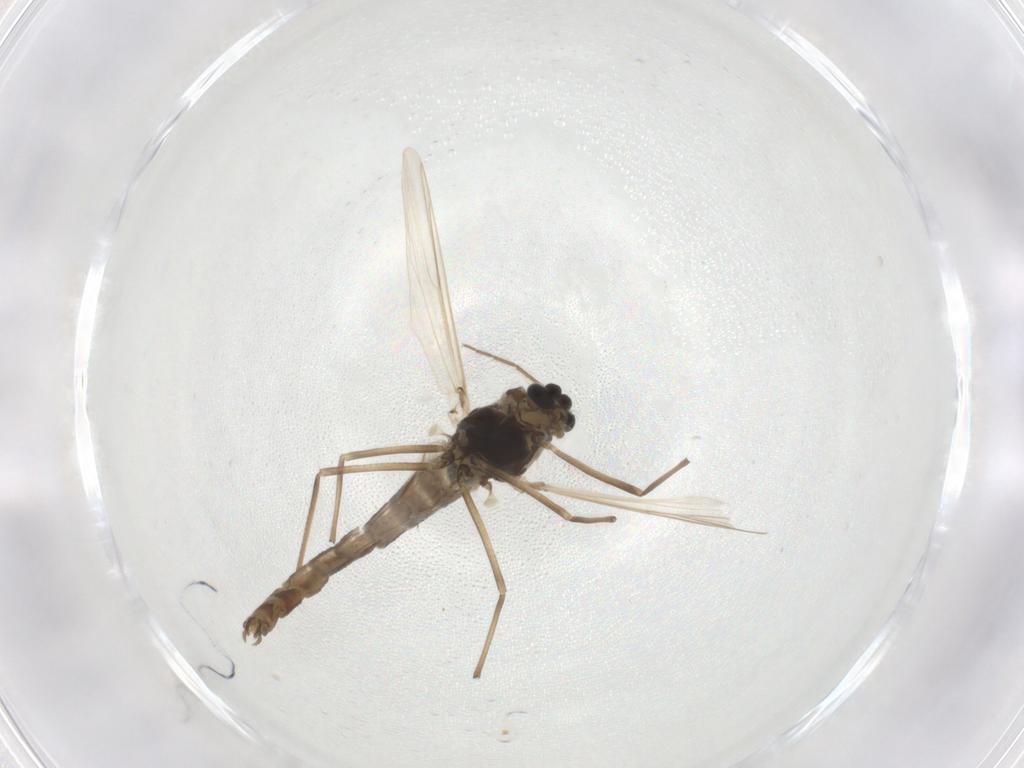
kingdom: Animalia
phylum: Arthropoda
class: Insecta
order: Diptera
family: Chironomidae
